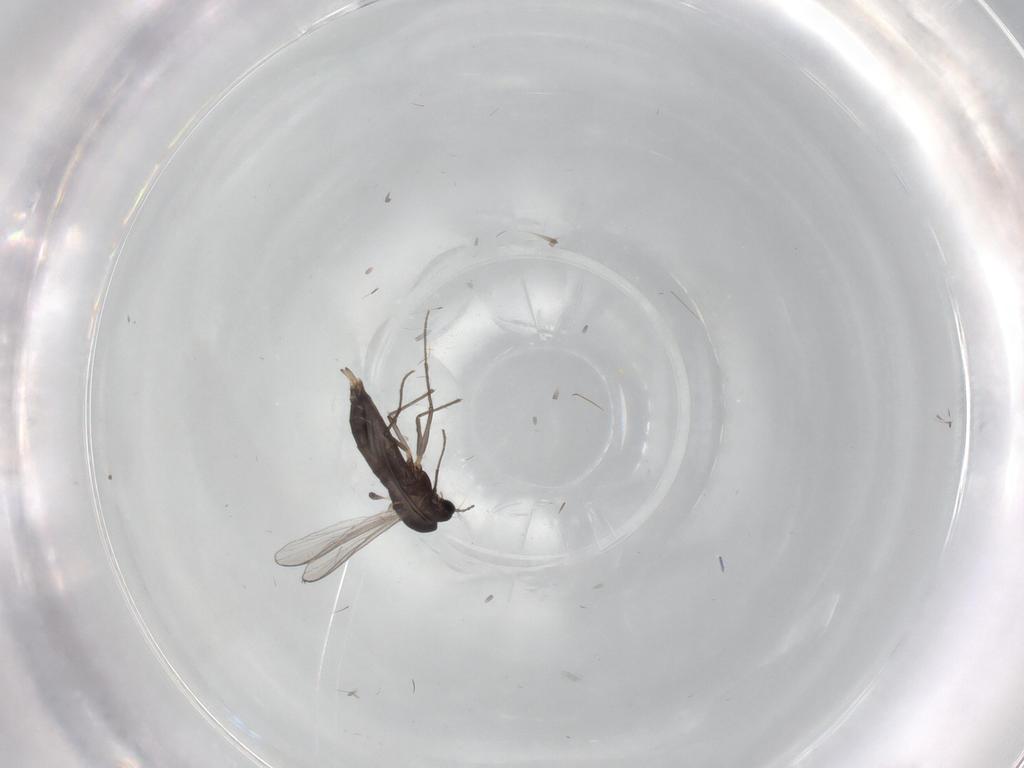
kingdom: Animalia
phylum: Arthropoda
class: Insecta
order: Diptera
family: Chironomidae
